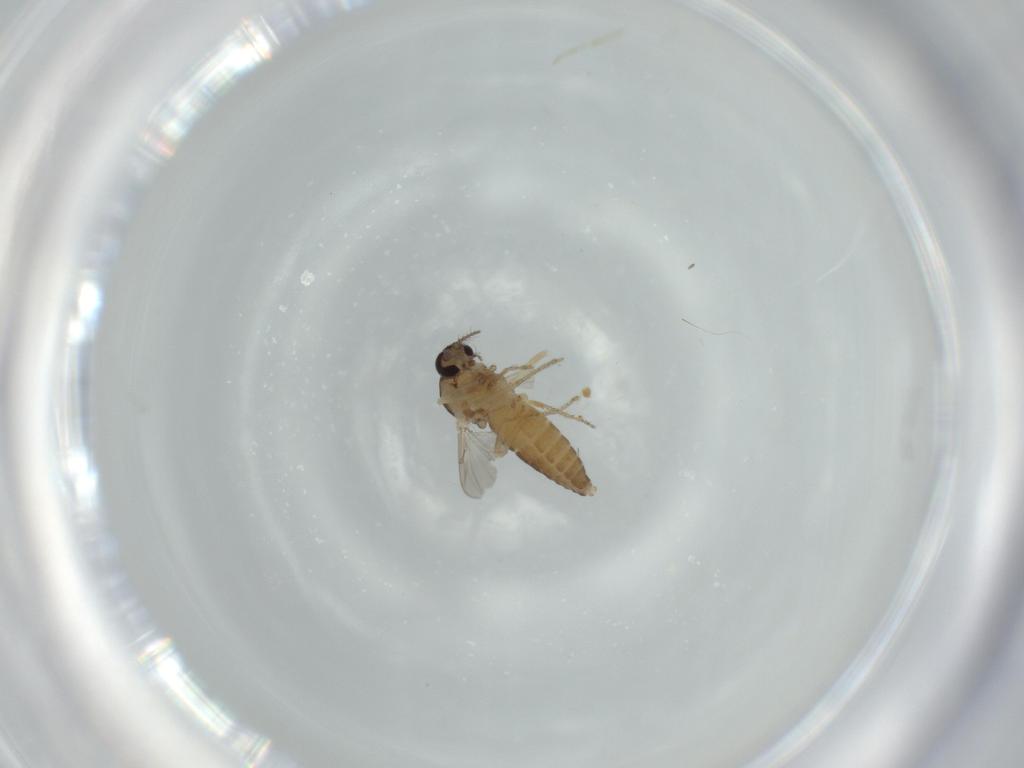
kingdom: Animalia
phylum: Arthropoda
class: Insecta
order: Diptera
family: Ceratopogonidae
